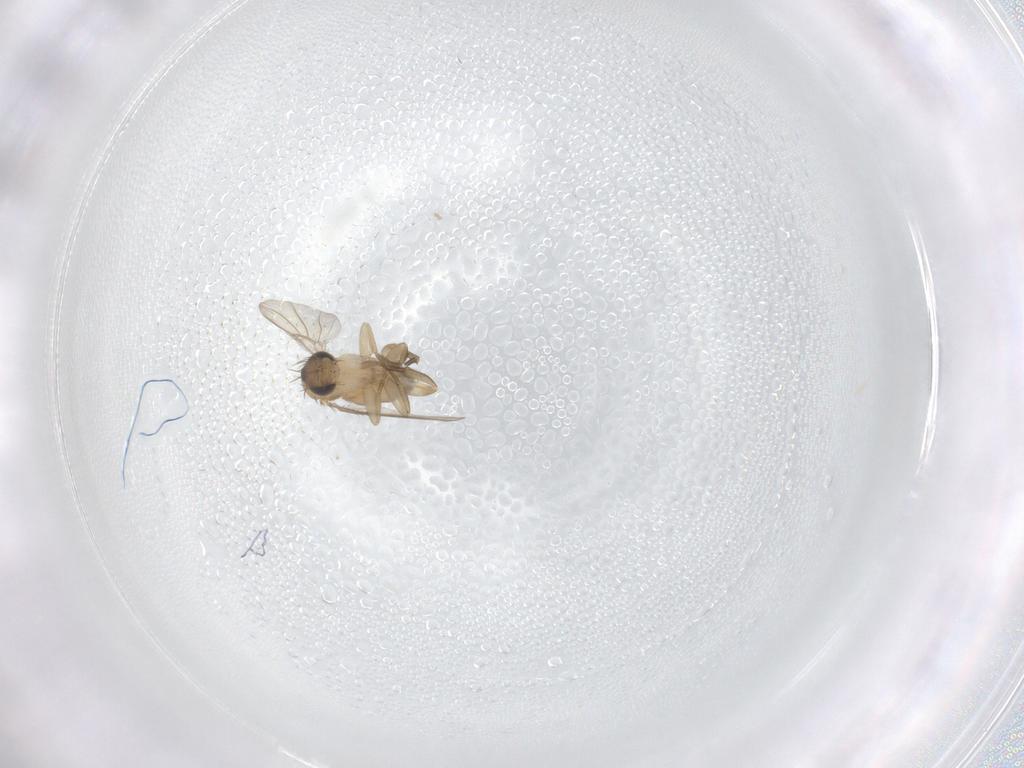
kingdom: Animalia
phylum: Arthropoda
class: Insecta
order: Diptera
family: Phoridae
